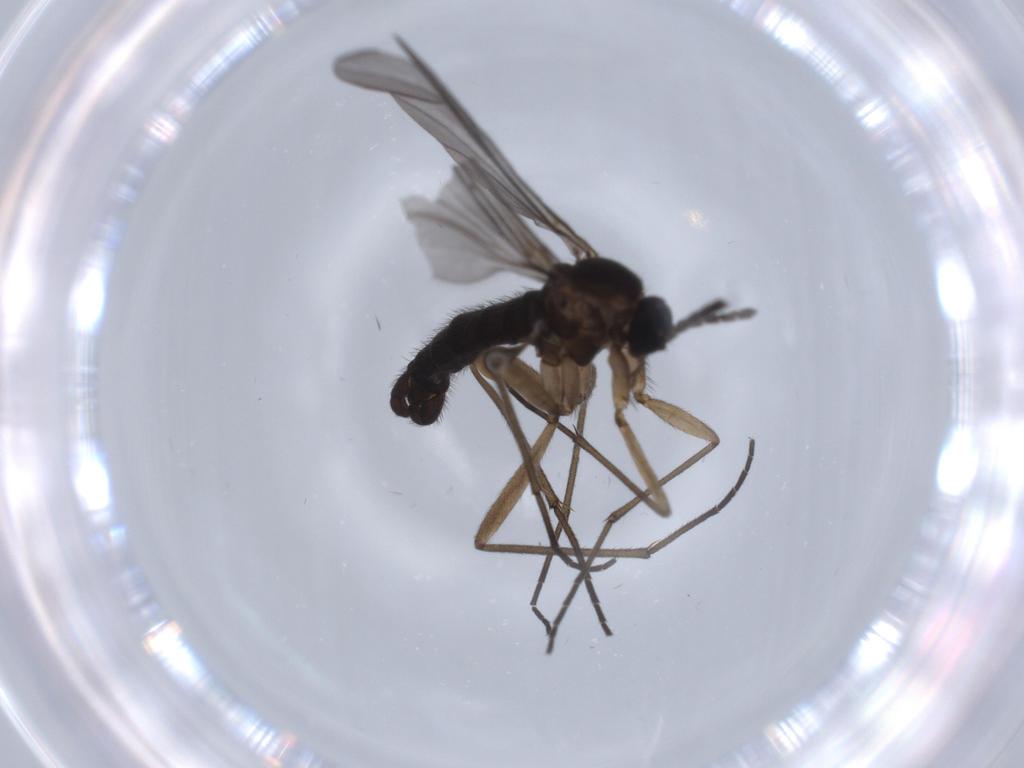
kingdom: Animalia
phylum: Arthropoda
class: Insecta
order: Diptera
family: Sciaridae
